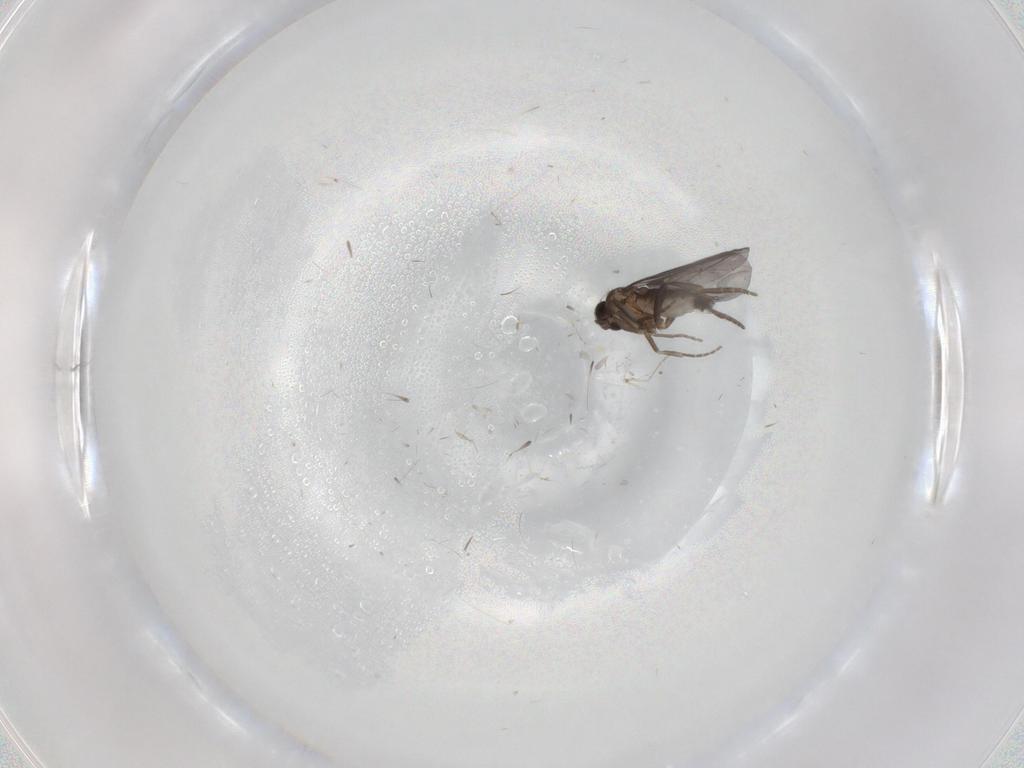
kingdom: Animalia
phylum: Arthropoda
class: Insecta
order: Diptera
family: Phoridae
